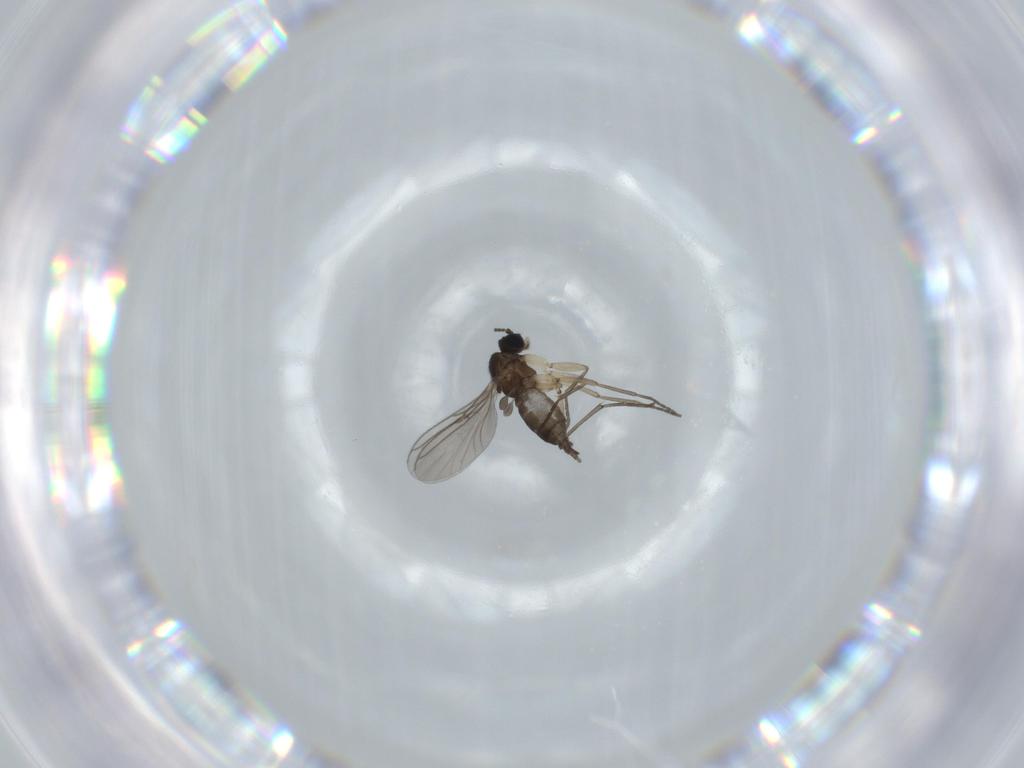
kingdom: Animalia
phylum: Arthropoda
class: Insecta
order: Diptera
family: Sciaridae
